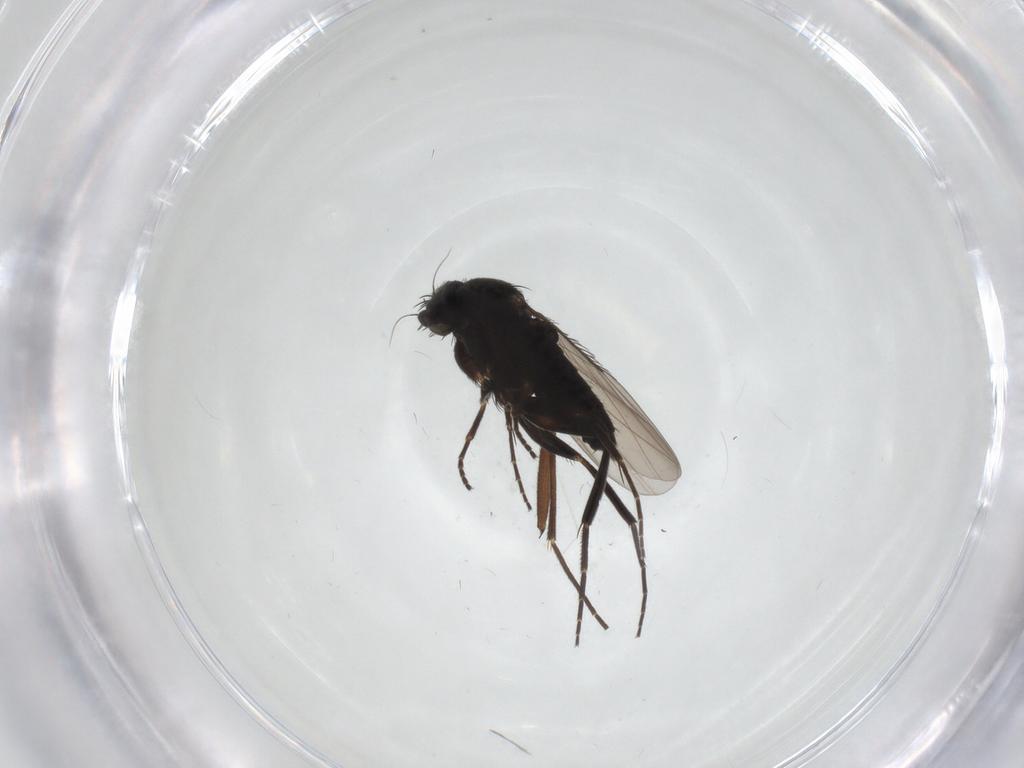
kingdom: Animalia
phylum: Arthropoda
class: Insecta
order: Diptera
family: Phoridae
